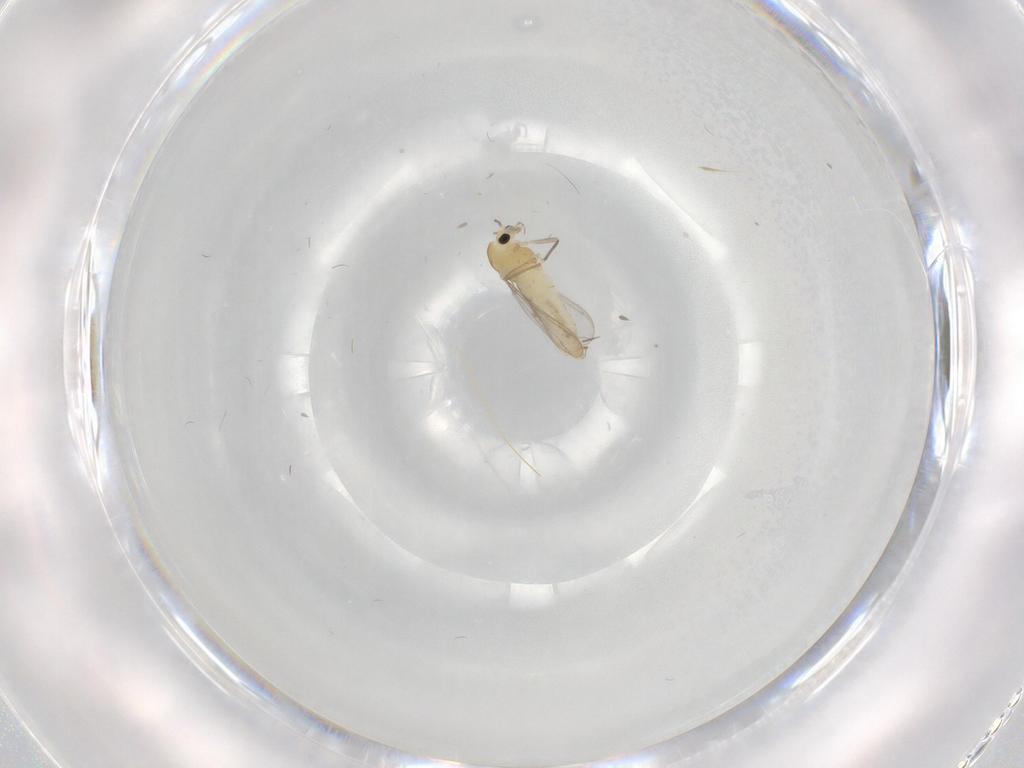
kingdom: Animalia
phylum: Arthropoda
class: Insecta
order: Diptera
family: Chironomidae
